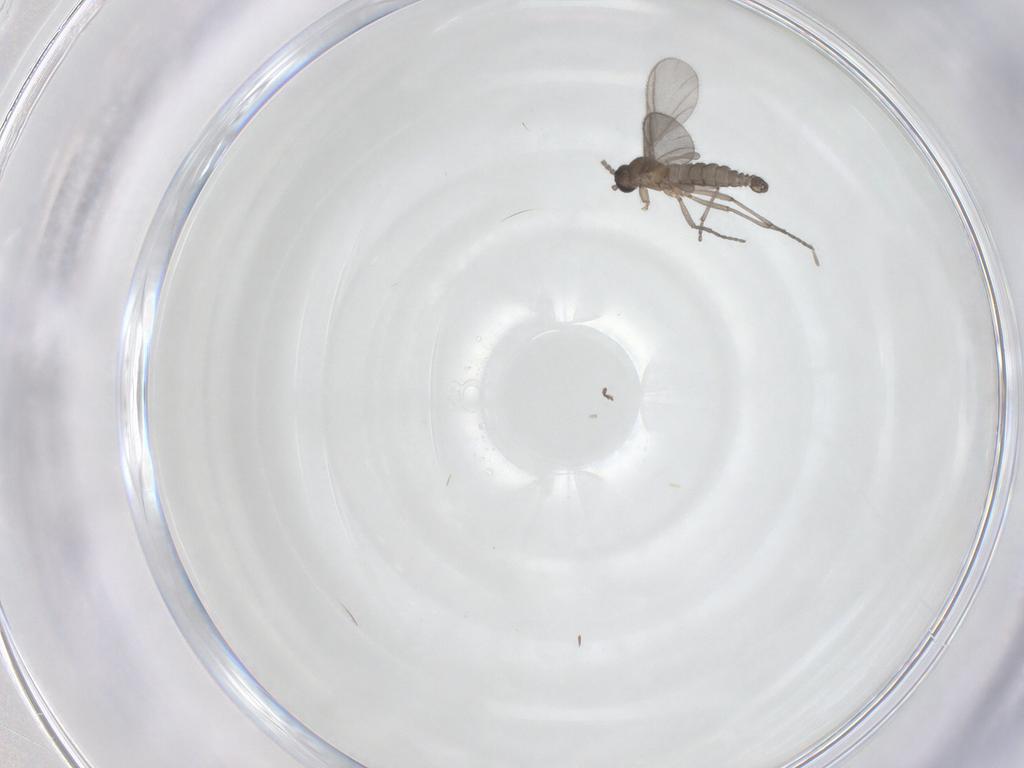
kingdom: Animalia
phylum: Arthropoda
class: Insecta
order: Diptera
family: Sciaridae
